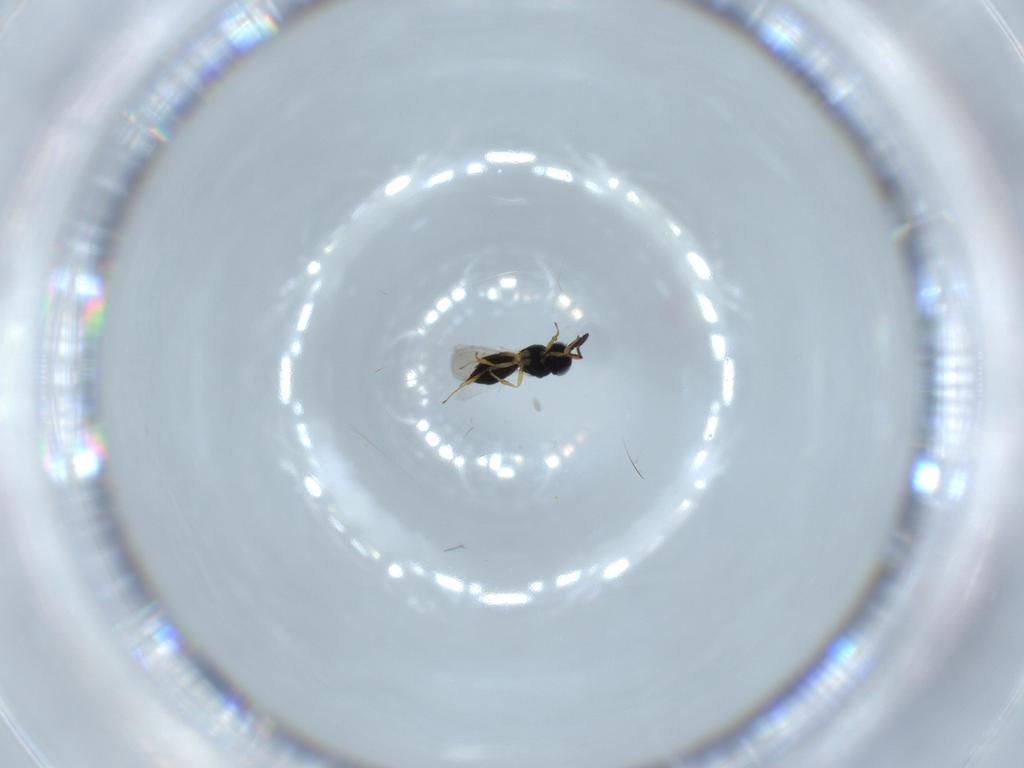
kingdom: Animalia
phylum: Arthropoda
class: Insecta
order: Hymenoptera
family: Scelionidae
